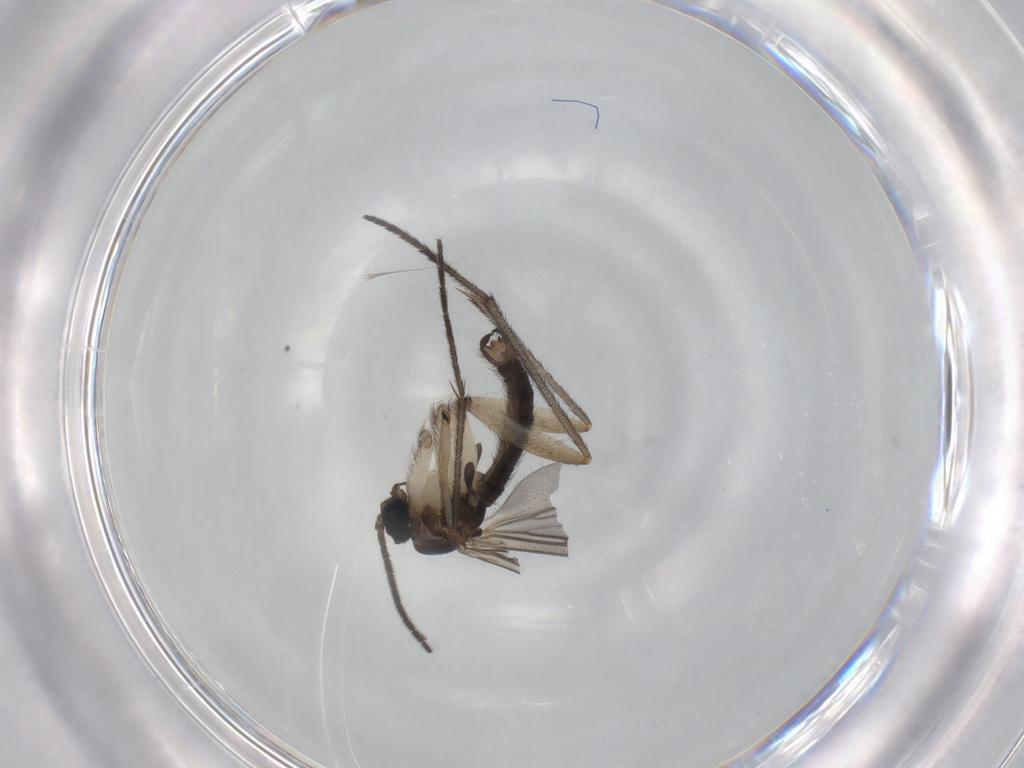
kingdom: Animalia
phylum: Arthropoda
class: Insecta
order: Diptera
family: Sciaridae
